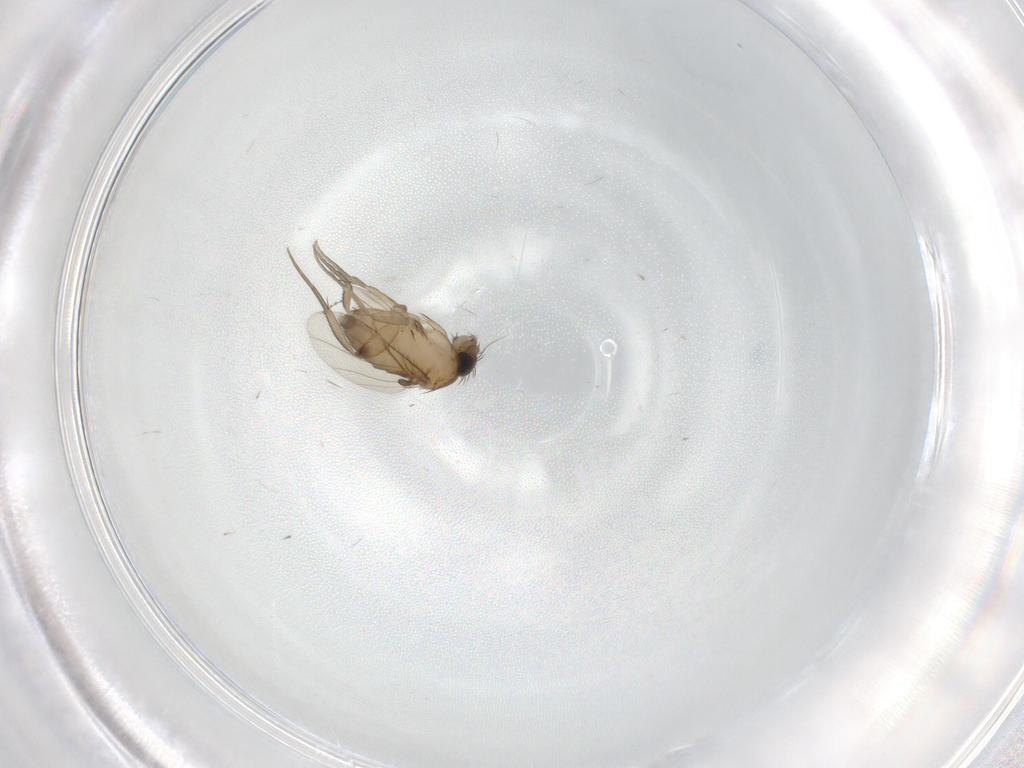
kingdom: Animalia
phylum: Arthropoda
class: Insecta
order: Diptera
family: Phoridae
